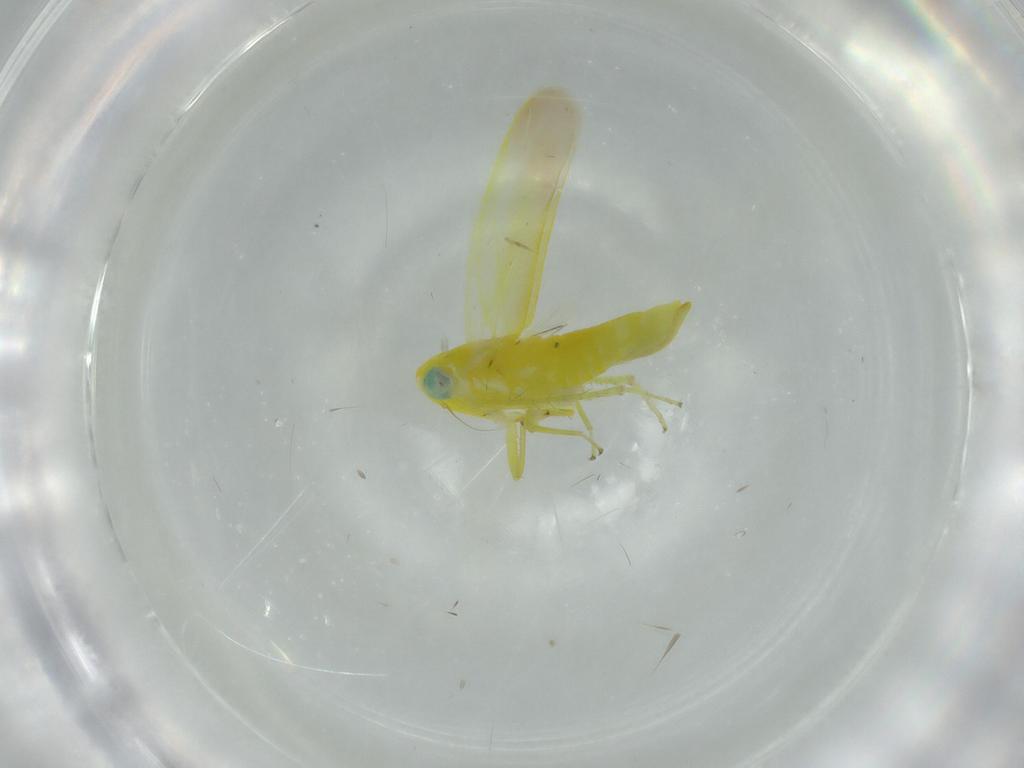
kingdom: Animalia
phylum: Arthropoda
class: Insecta
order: Hemiptera
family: Cicadellidae
